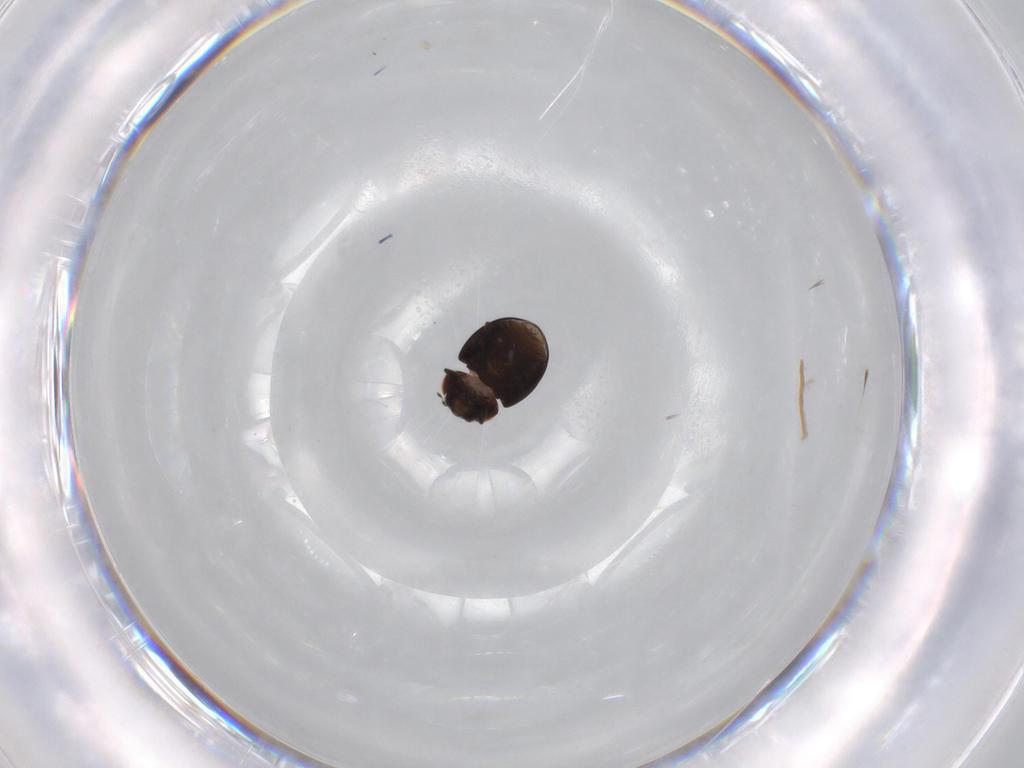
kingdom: Animalia
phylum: Arthropoda
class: Insecta
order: Coleoptera
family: Coccinellidae
